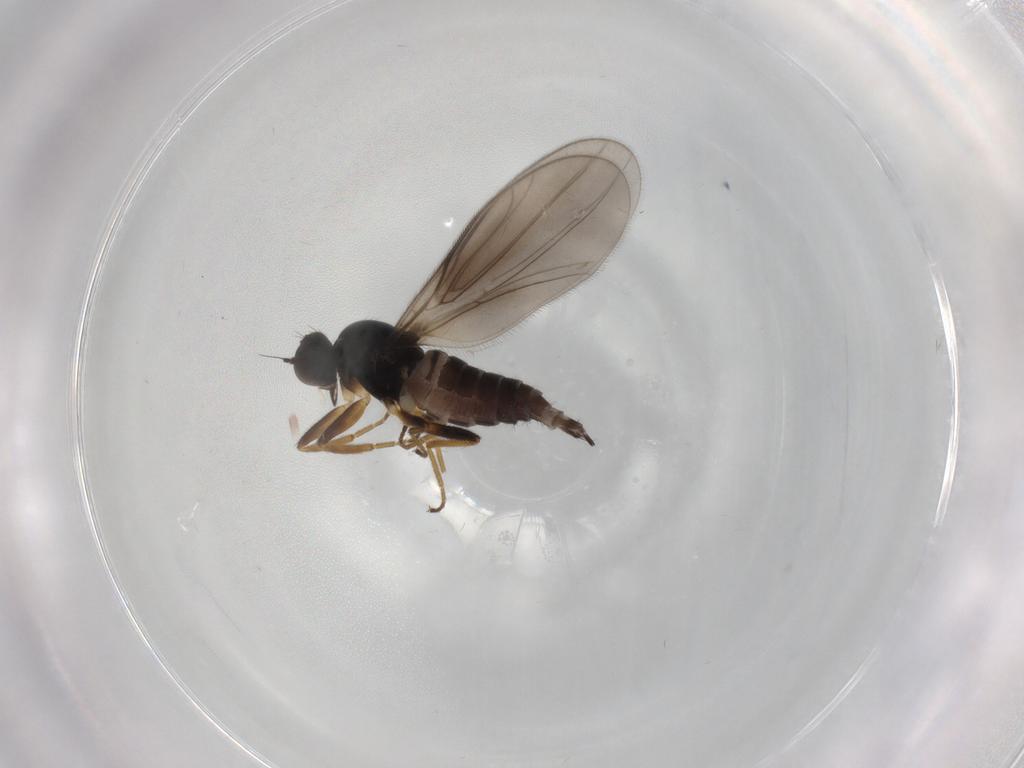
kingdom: Animalia
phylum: Arthropoda
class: Insecta
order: Diptera
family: Hybotidae
